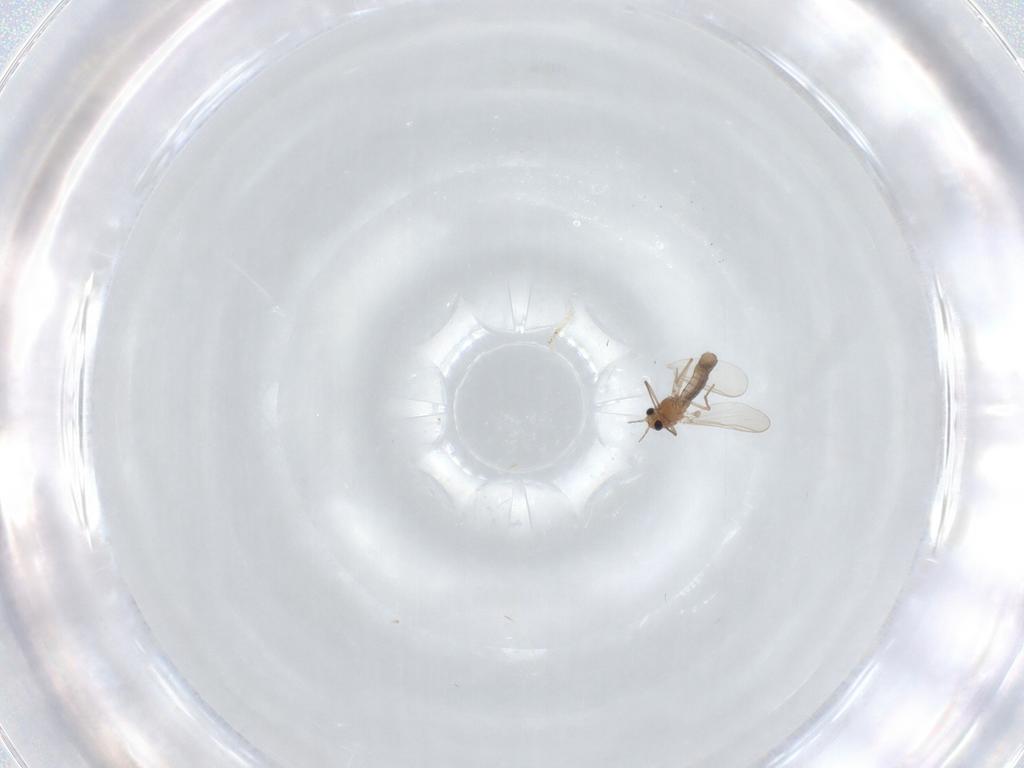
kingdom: Animalia
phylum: Arthropoda
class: Insecta
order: Diptera
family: Chironomidae
